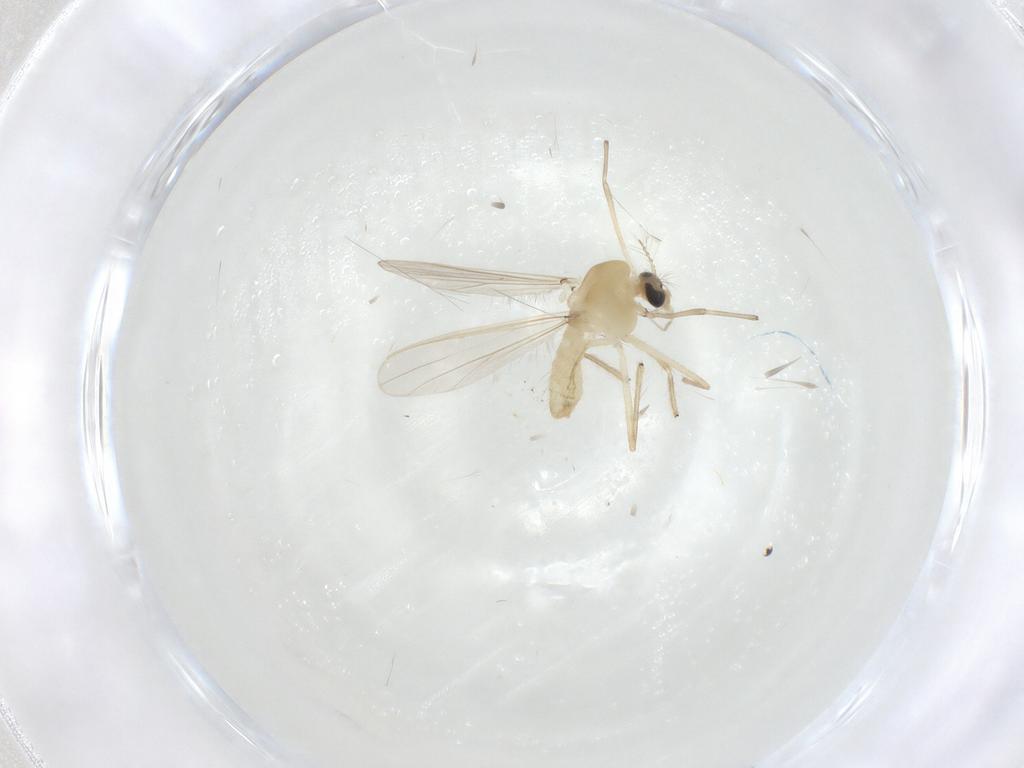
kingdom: Animalia
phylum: Arthropoda
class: Insecta
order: Diptera
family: Chironomidae
